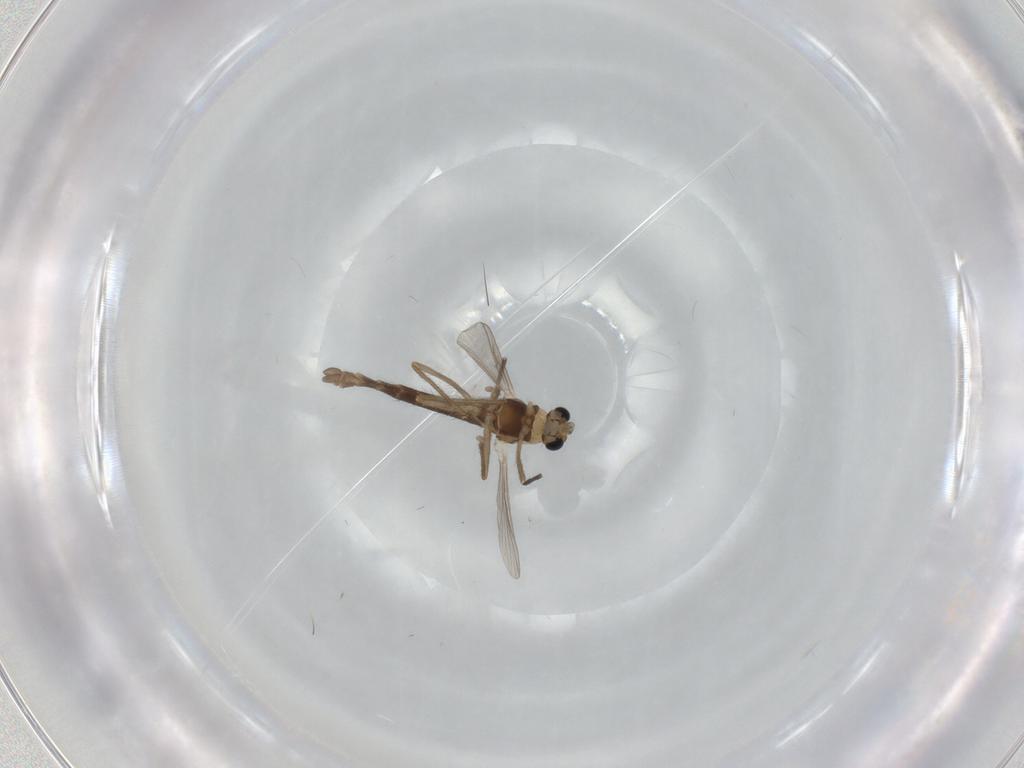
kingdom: Animalia
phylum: Arthropoda
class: Insecta
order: Diptera
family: Chironomidae
